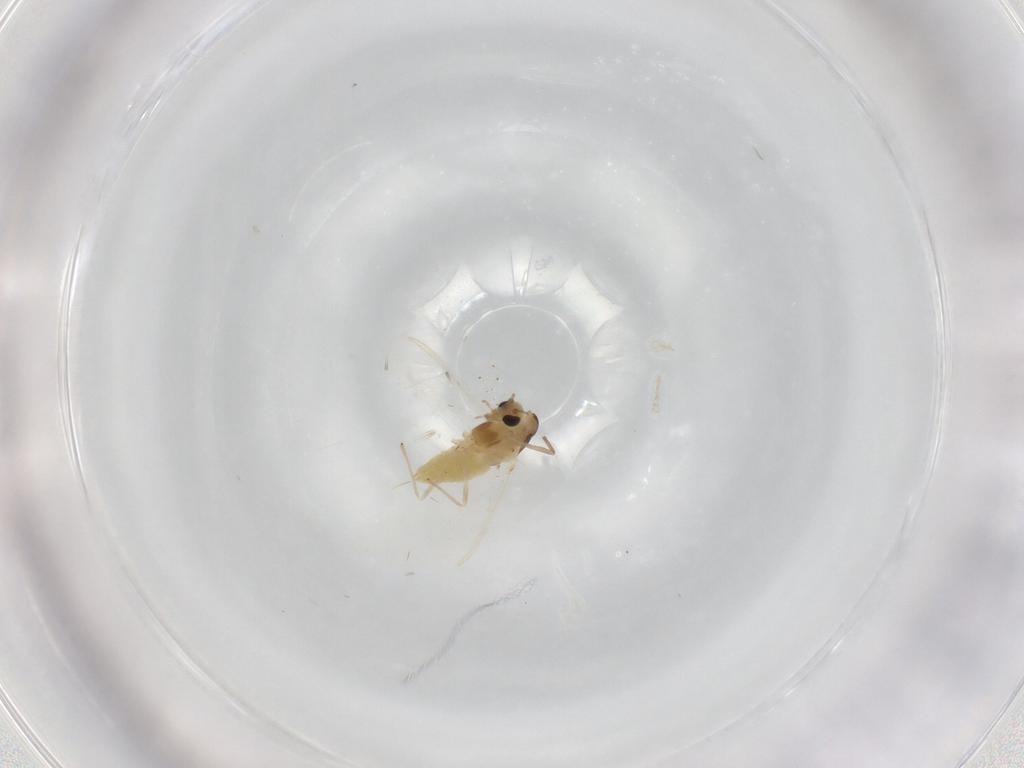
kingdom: Animalia
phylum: Arthropoda
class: Insecta
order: Diptera
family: Chironomidae
